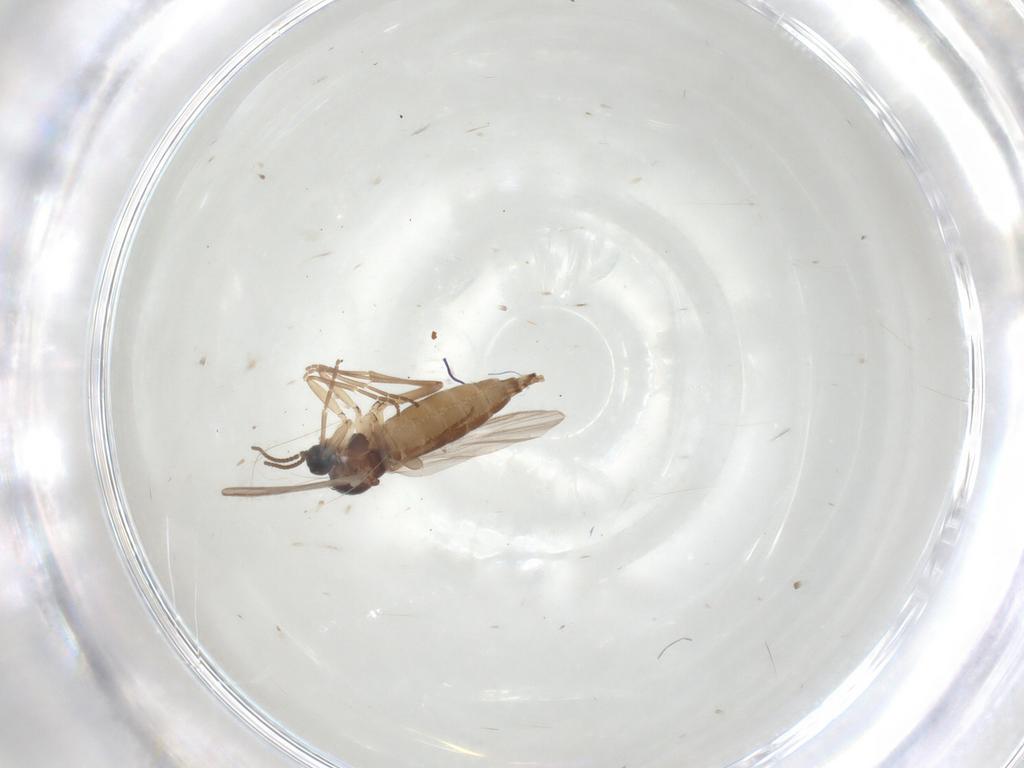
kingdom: Animalia
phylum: Arthropoda
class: Insecta
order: Diptera
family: Sciaridae
